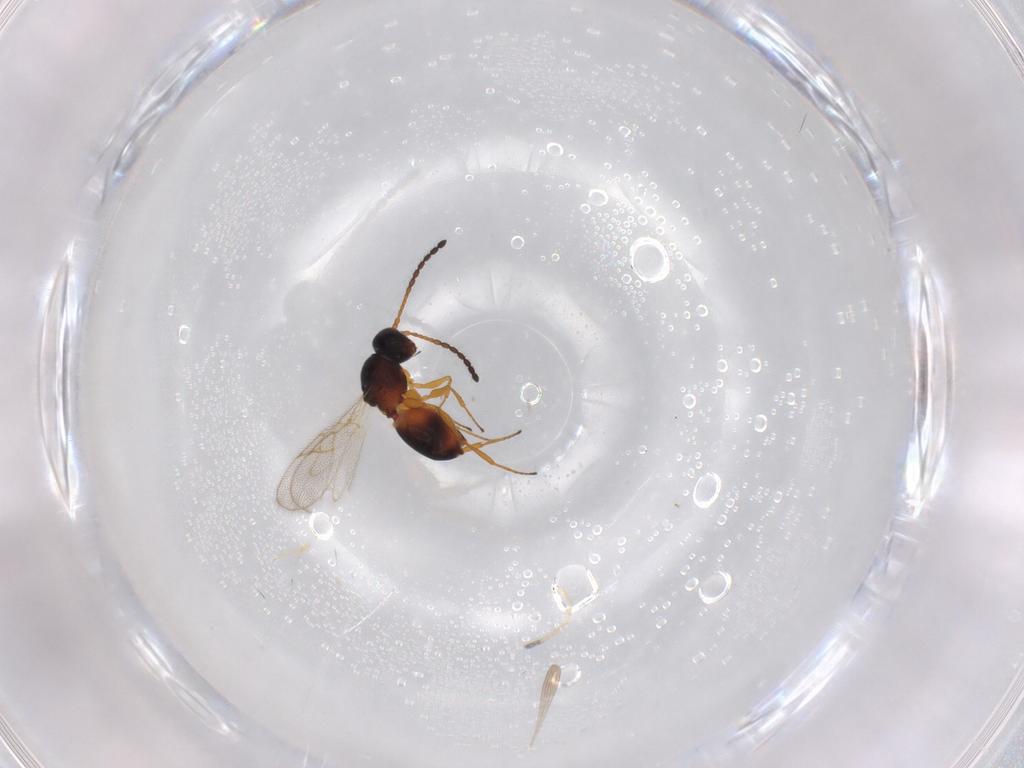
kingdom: Animalia
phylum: Arthropoda
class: Insecta
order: Hymenoptera
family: Figitidae
